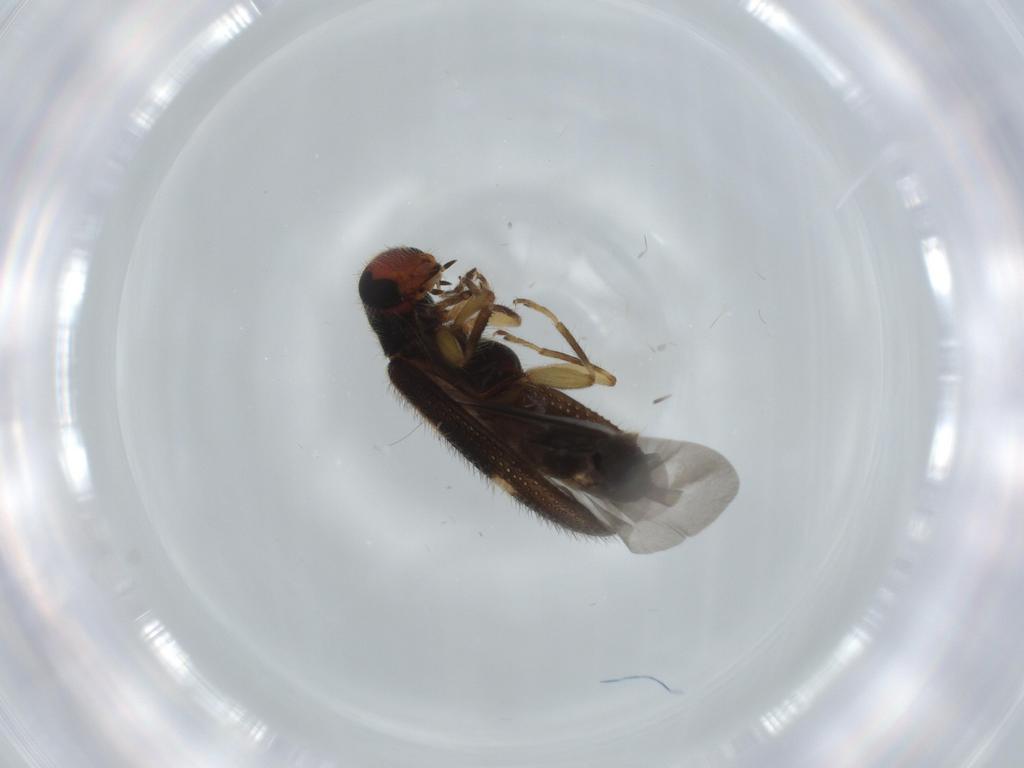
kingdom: Animalia
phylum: Arthropoda
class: Insecta
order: Coleoptera
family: Cleridae
